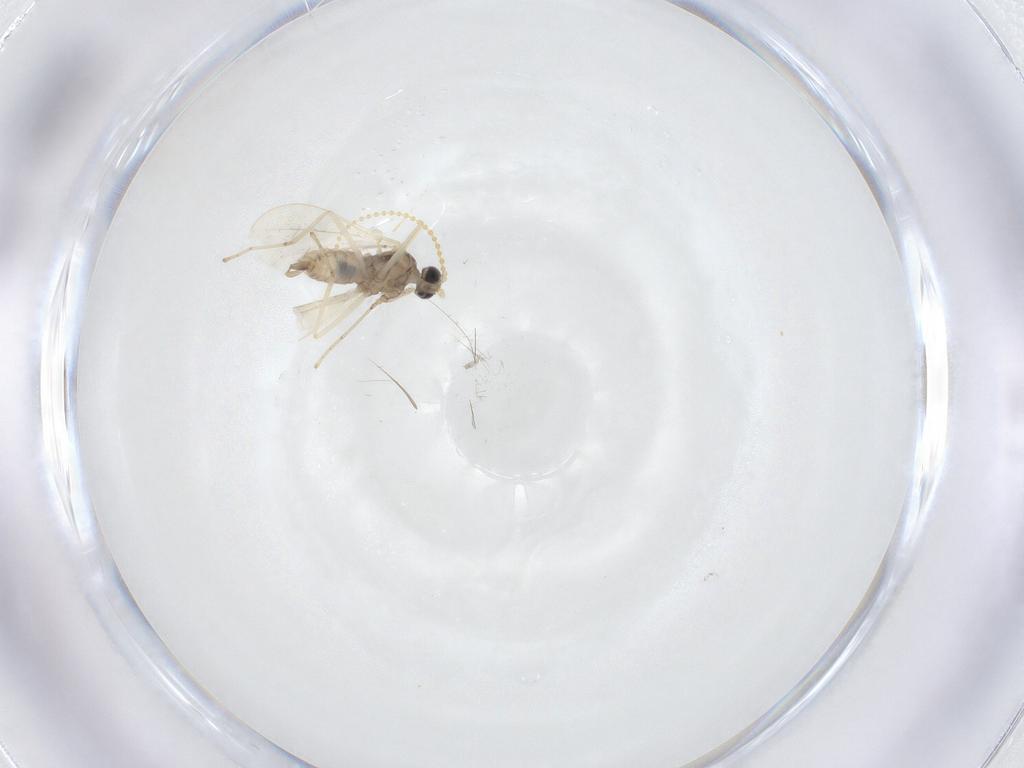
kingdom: Animalia
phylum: Arthropoda
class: Insecta
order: Diptera
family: Cecidomyiidae
